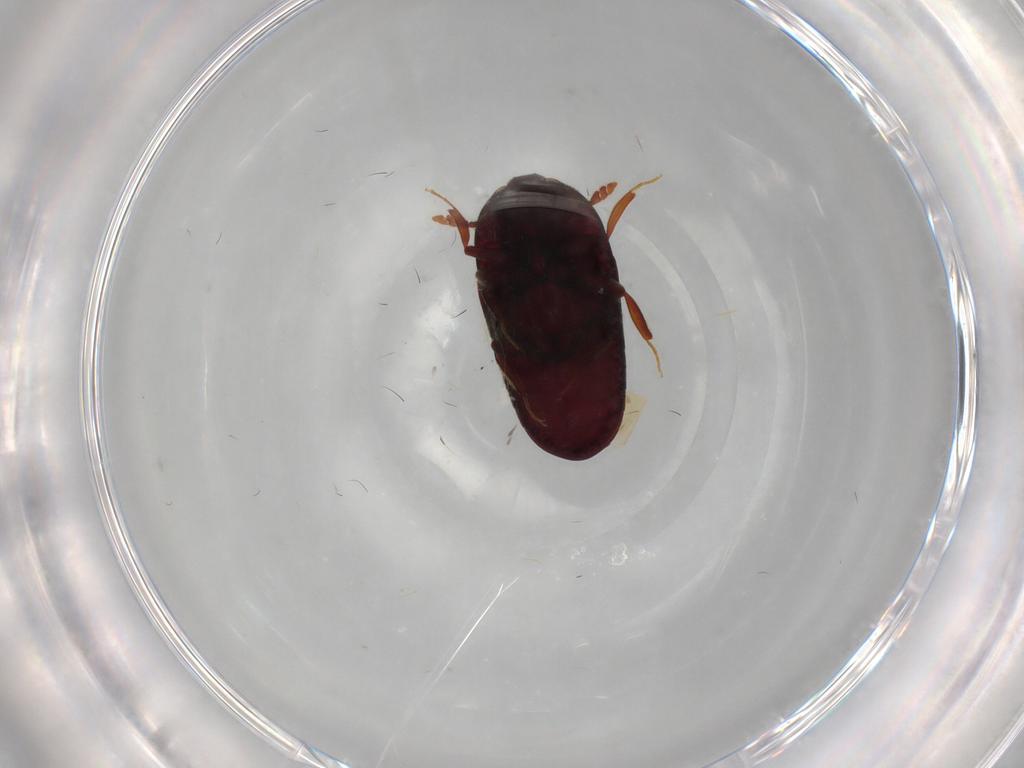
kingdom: Animalia
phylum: Arthropoda
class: Insecta
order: Coleoptera
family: Throscidae
